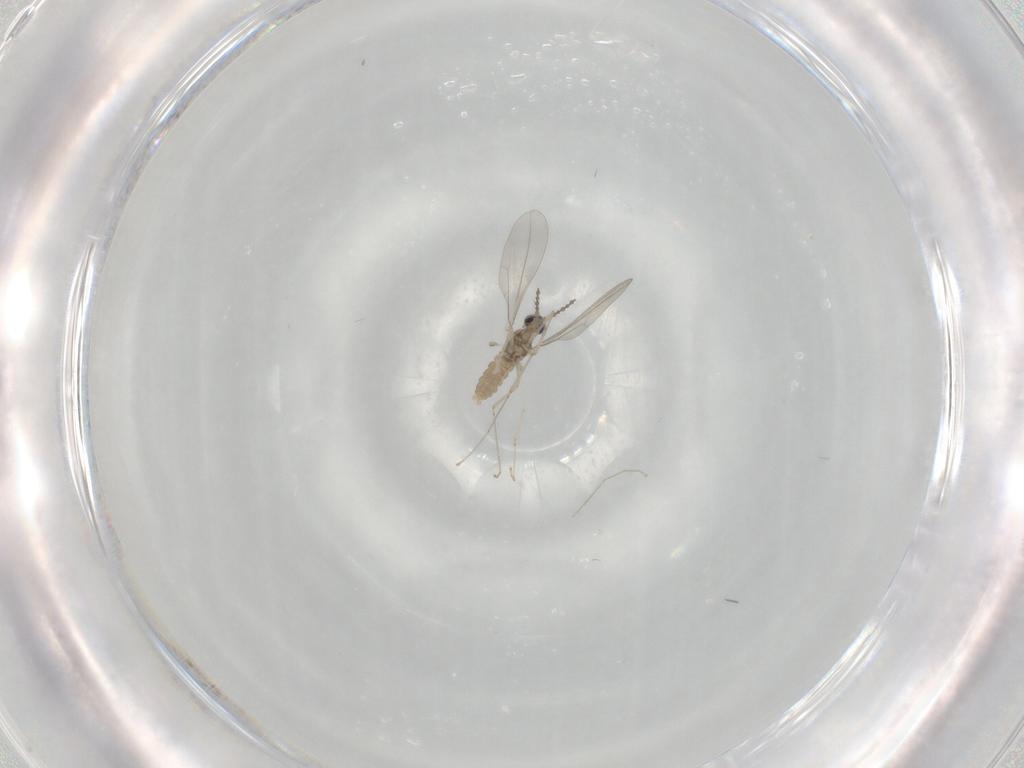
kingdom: Animalia
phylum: Arthropoda
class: Insecta
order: Diptera
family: Cecidomyiidae
